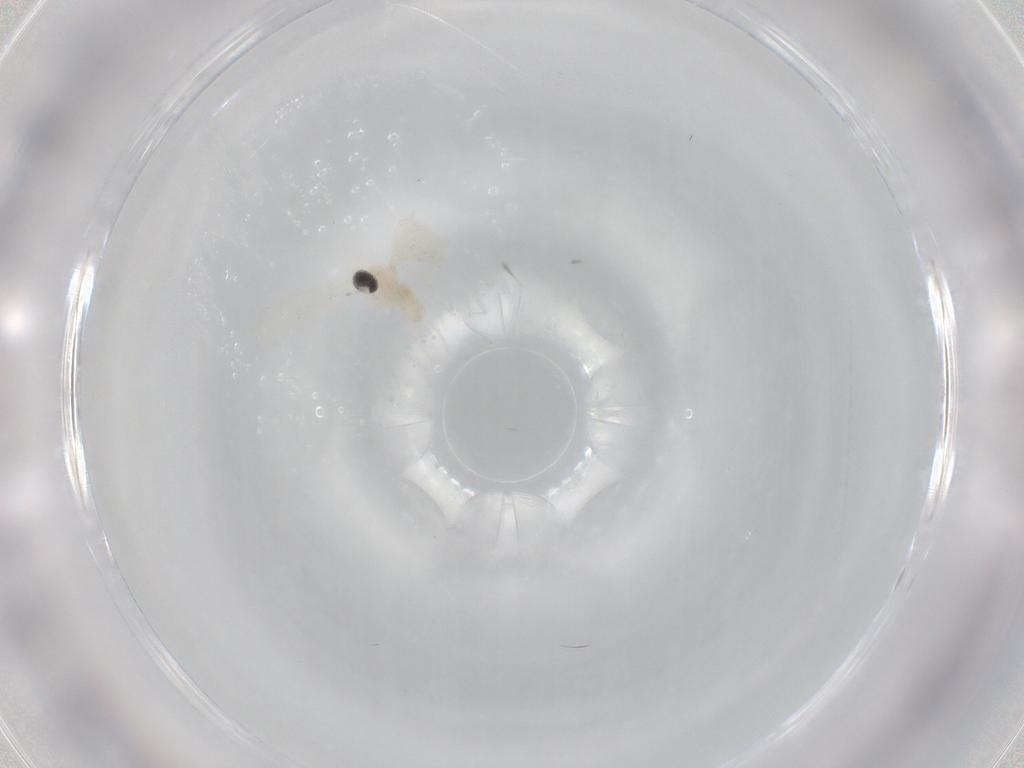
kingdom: Animalia
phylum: Arthropoda
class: Insecta
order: Diptera
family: Cecidomyiidae
